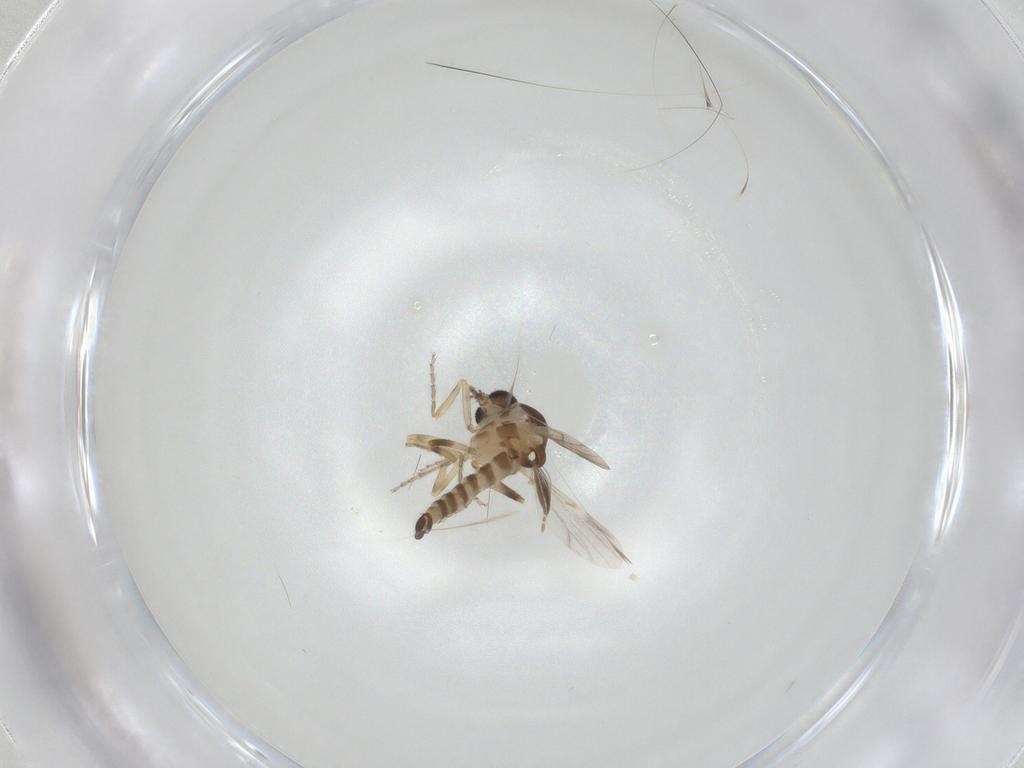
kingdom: Animalia
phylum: Arthropoda
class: Insecta
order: Diptera
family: Ceratopogonidae
